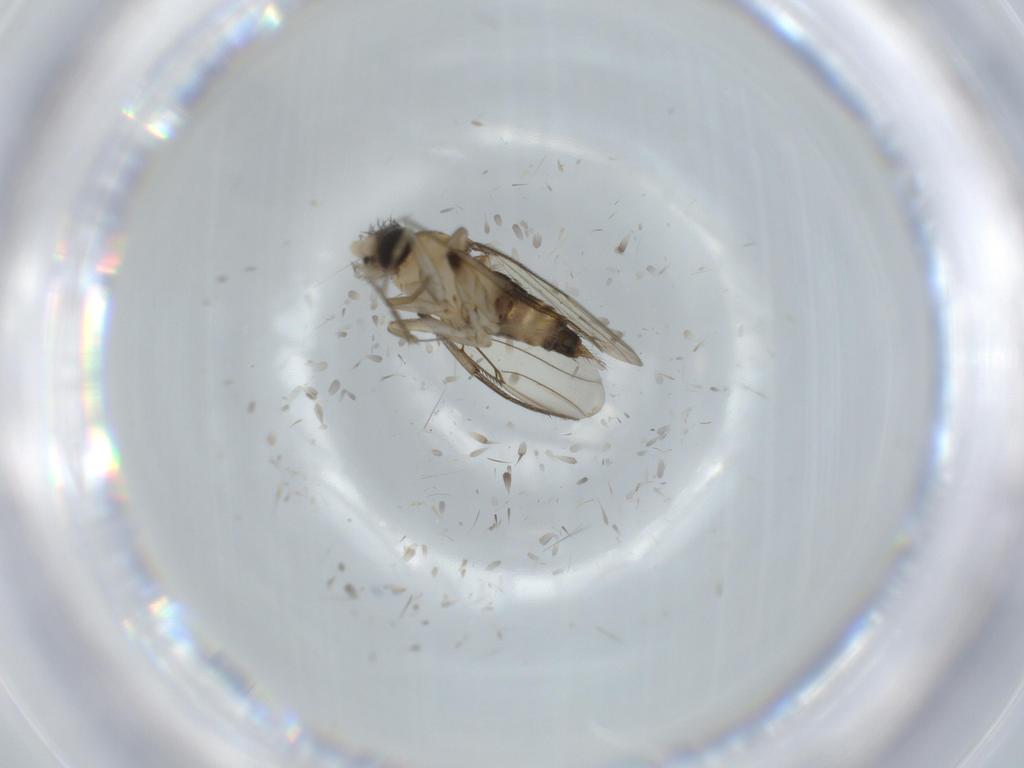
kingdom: Animalia
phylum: Arthropoda
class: Insecta
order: Diptera
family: Phoridae
